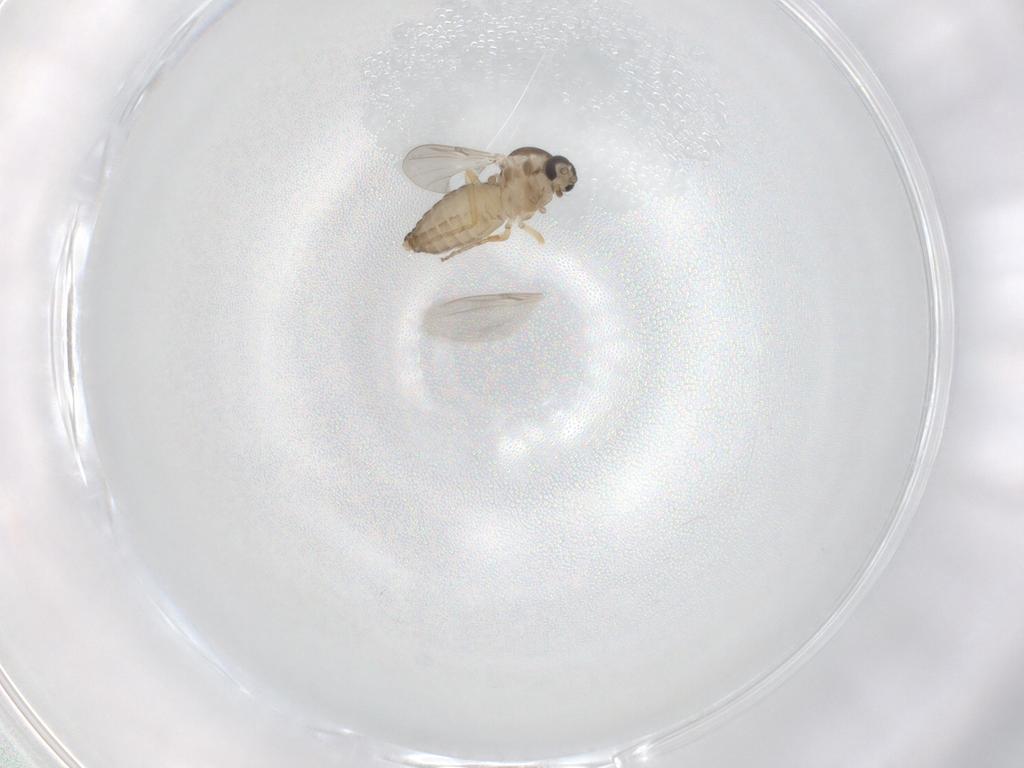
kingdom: Animalia
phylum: Arthropoda
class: Insecta
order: Diptera
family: Ceratopogonidae
